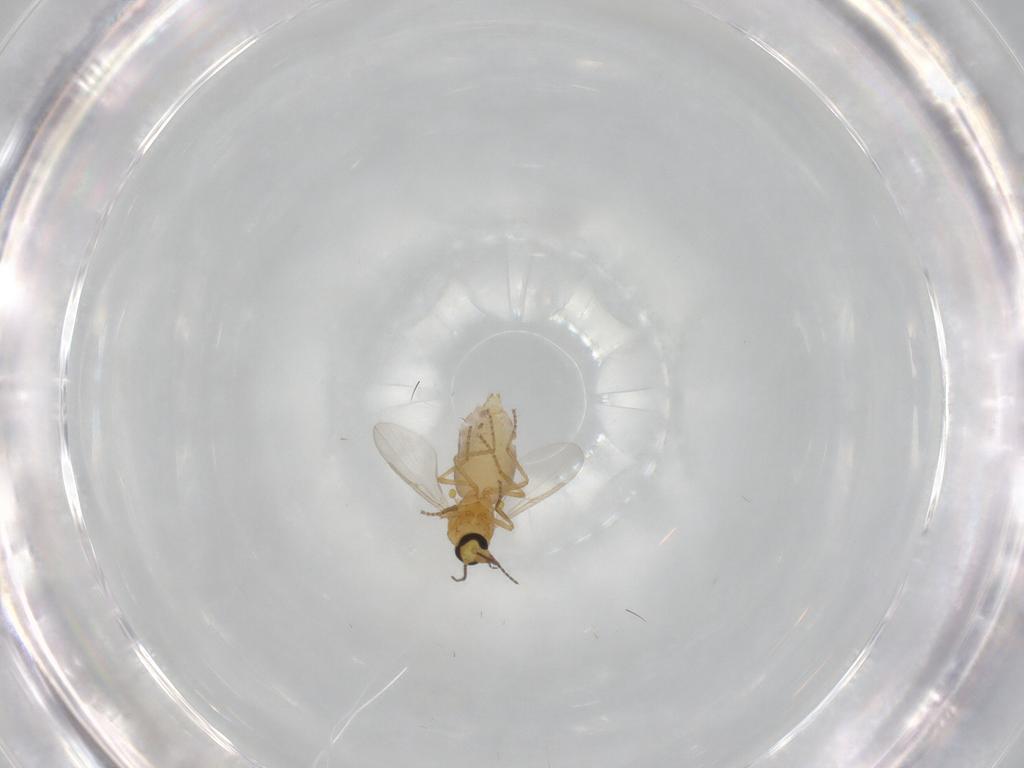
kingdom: Animalia
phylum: Arthropoda
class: Insecta
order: Diptera
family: Ceratopogonidae
